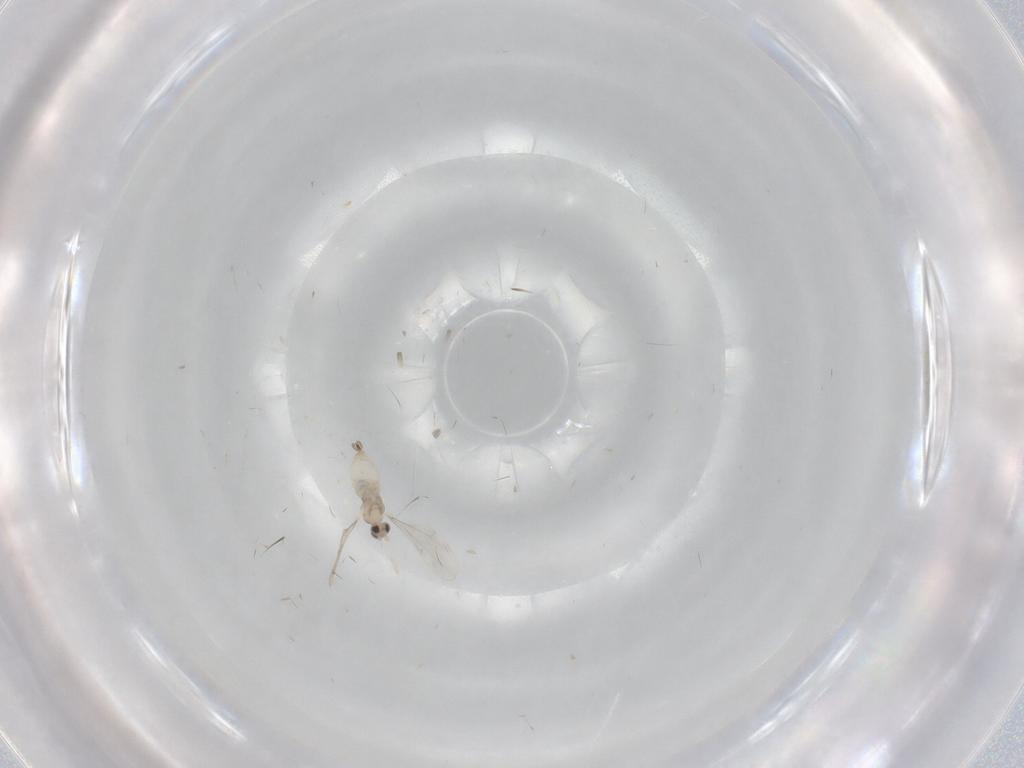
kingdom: Animalia
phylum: Arthropoda
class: Insecta
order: Diptera
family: Cecidomyiidae
